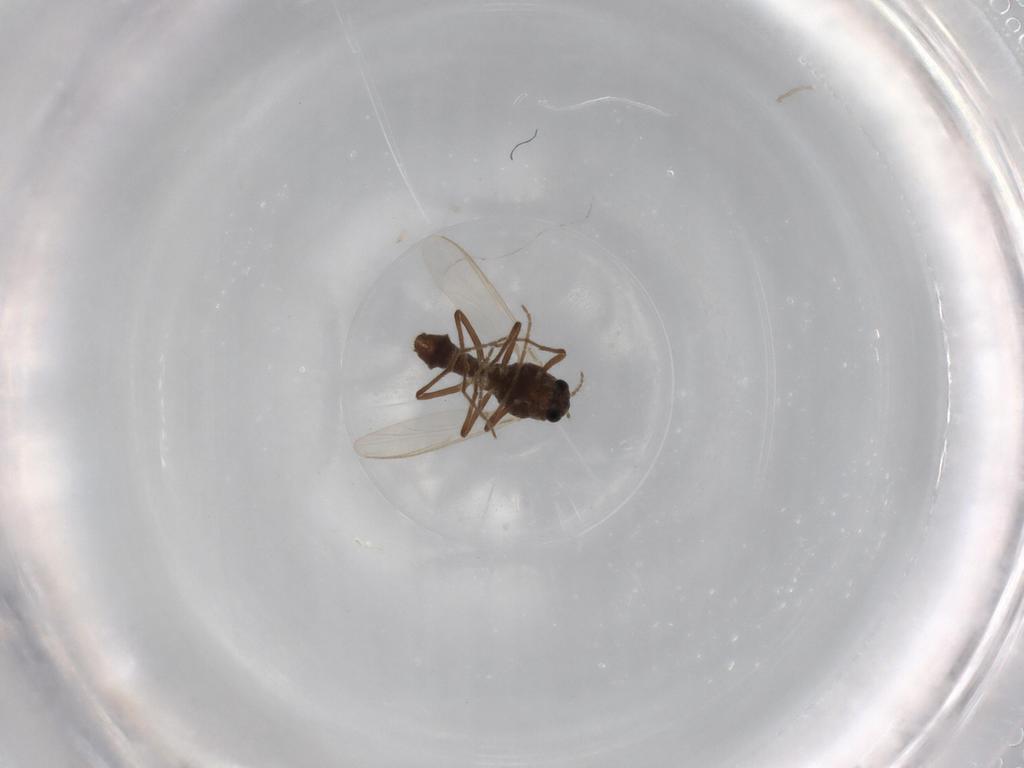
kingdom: Animalia
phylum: Arthropoda
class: Insecta
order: Diptera
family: Chironomidae
